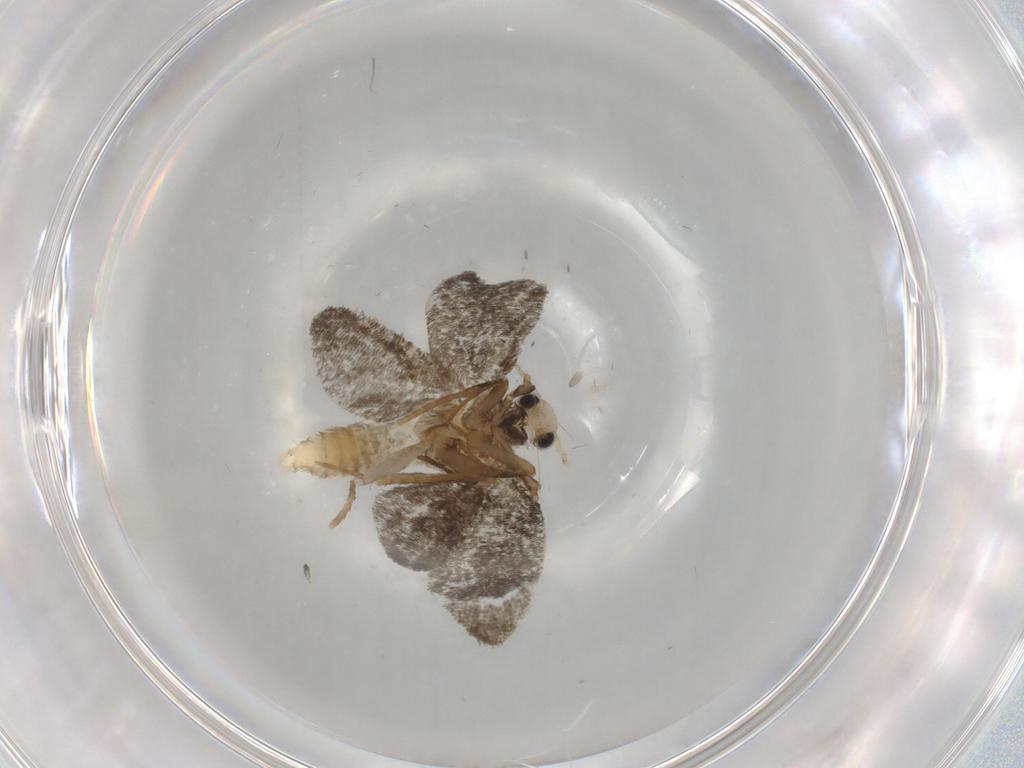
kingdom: Animalia
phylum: Arthropoda
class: Insecta
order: Lepidoptera
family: Psychidae
